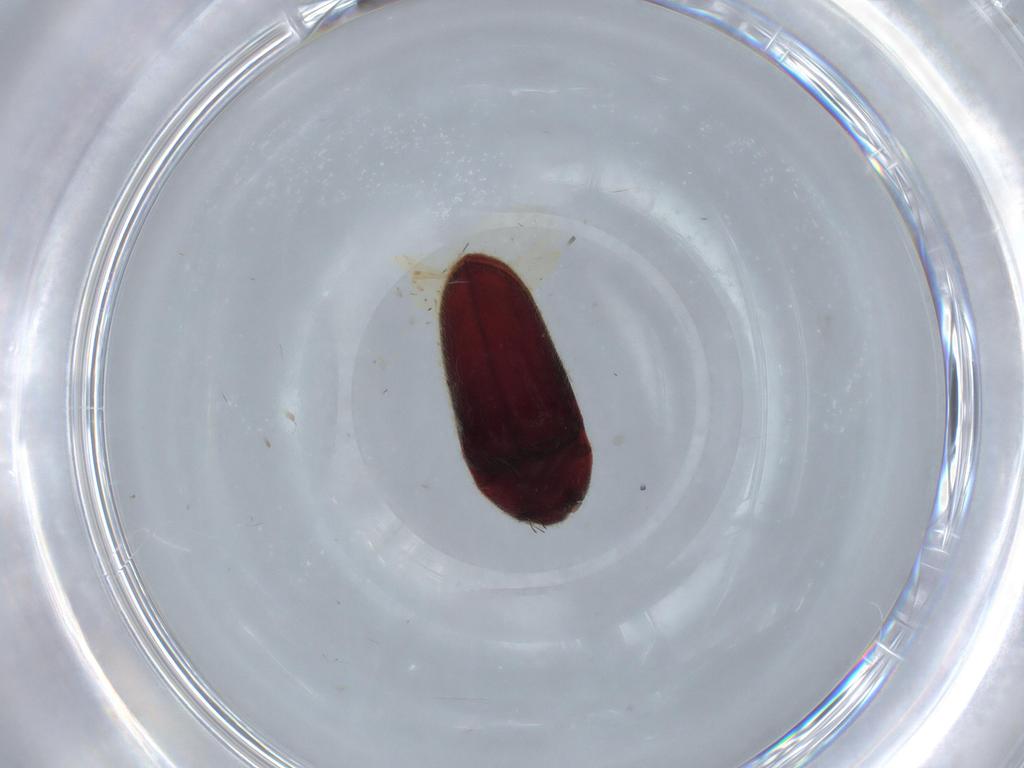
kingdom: Animalia
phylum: Arthropoda
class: Insecta
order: Coleoptera
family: Throscidae
